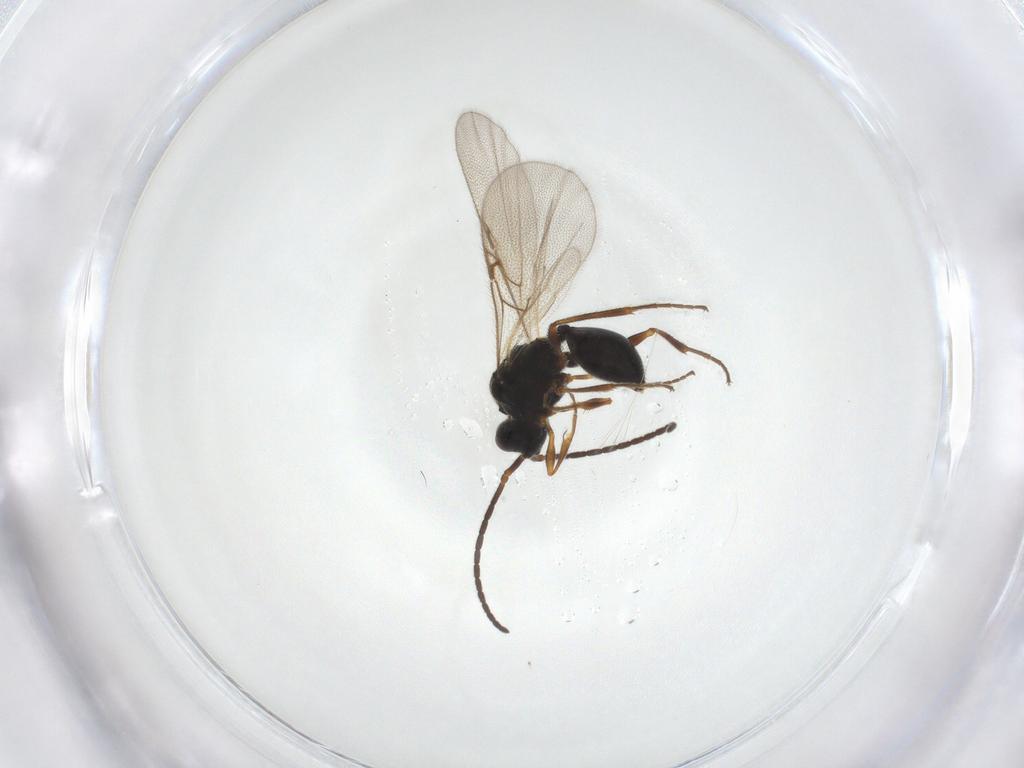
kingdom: Animalia
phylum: Arthropoda
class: Insecta
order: Hymenoptera
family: Diapriidae
